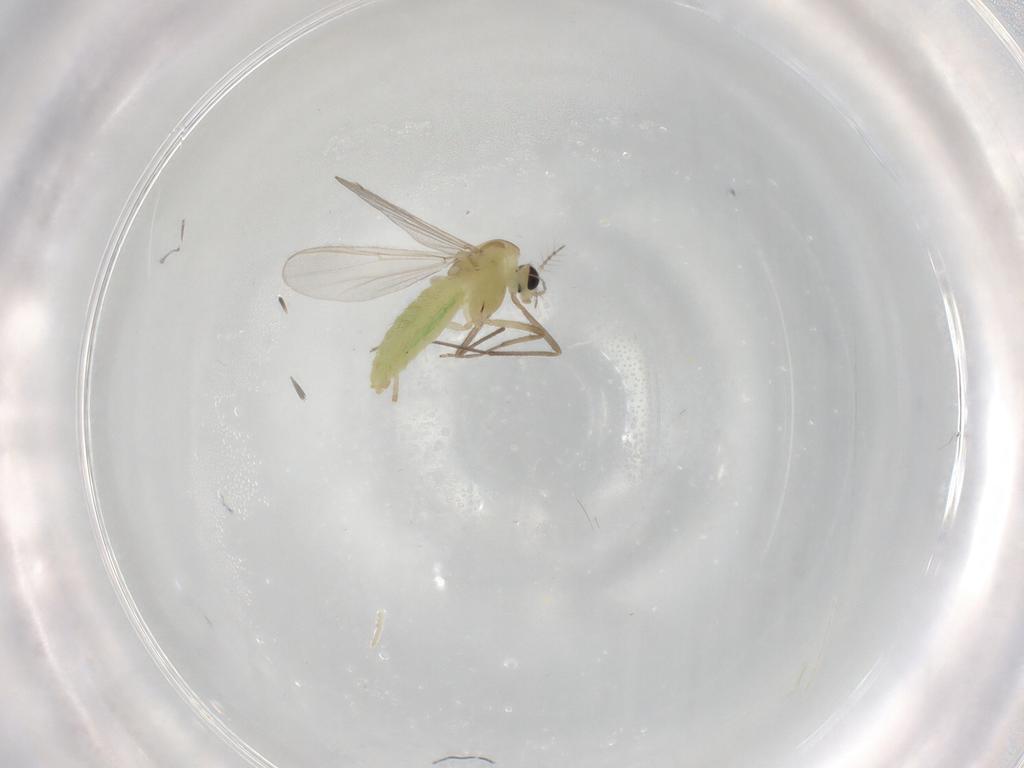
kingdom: Animalia
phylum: Arthropoda
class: Insecta
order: Diptera
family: Chironomidae
